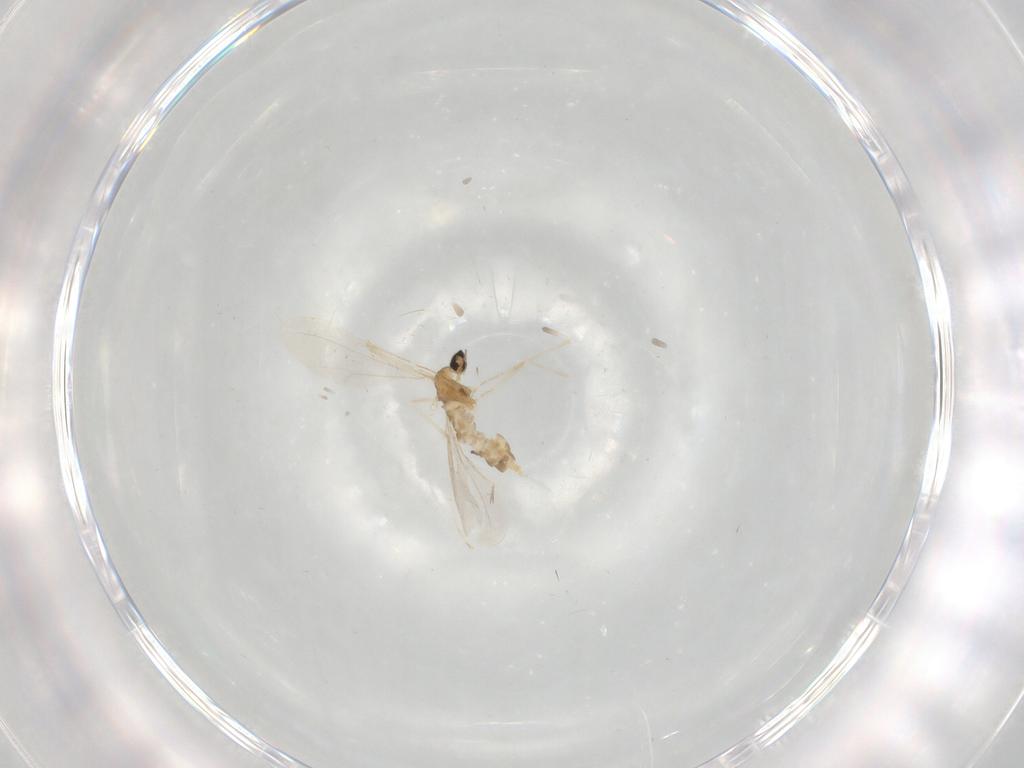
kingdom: Animalia
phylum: Arthropoda
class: Insecta
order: Diptera
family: Cecidomyiidae
